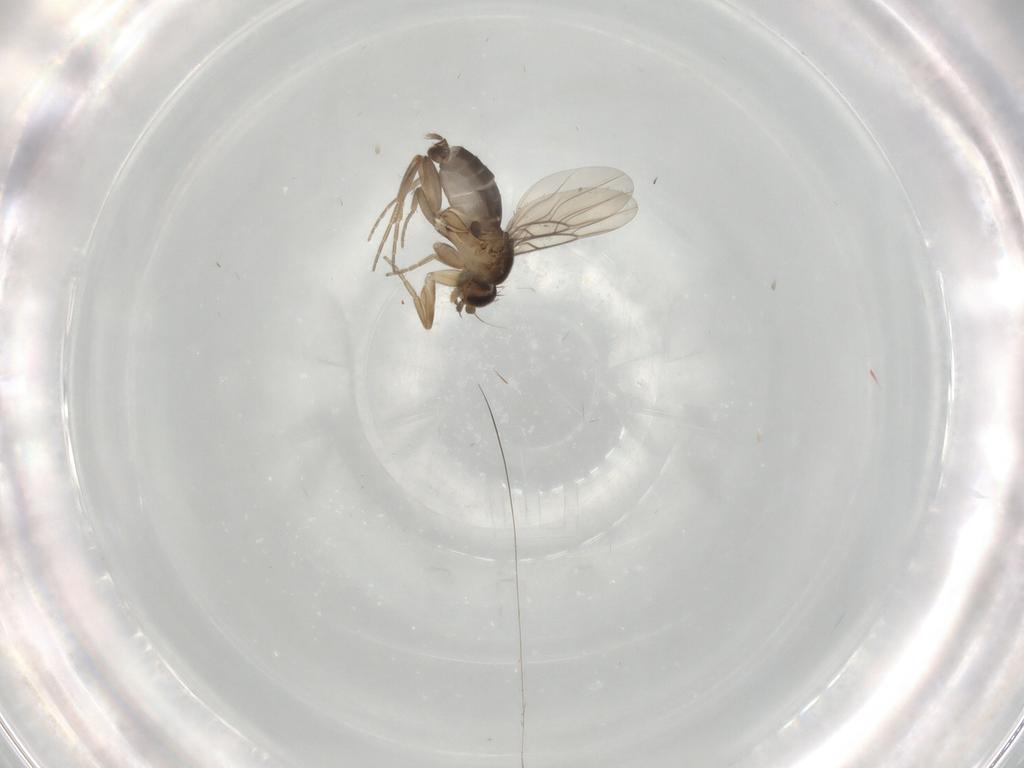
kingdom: Animalia
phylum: Arthropoda
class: Insecta
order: Diptera
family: Phoridae
